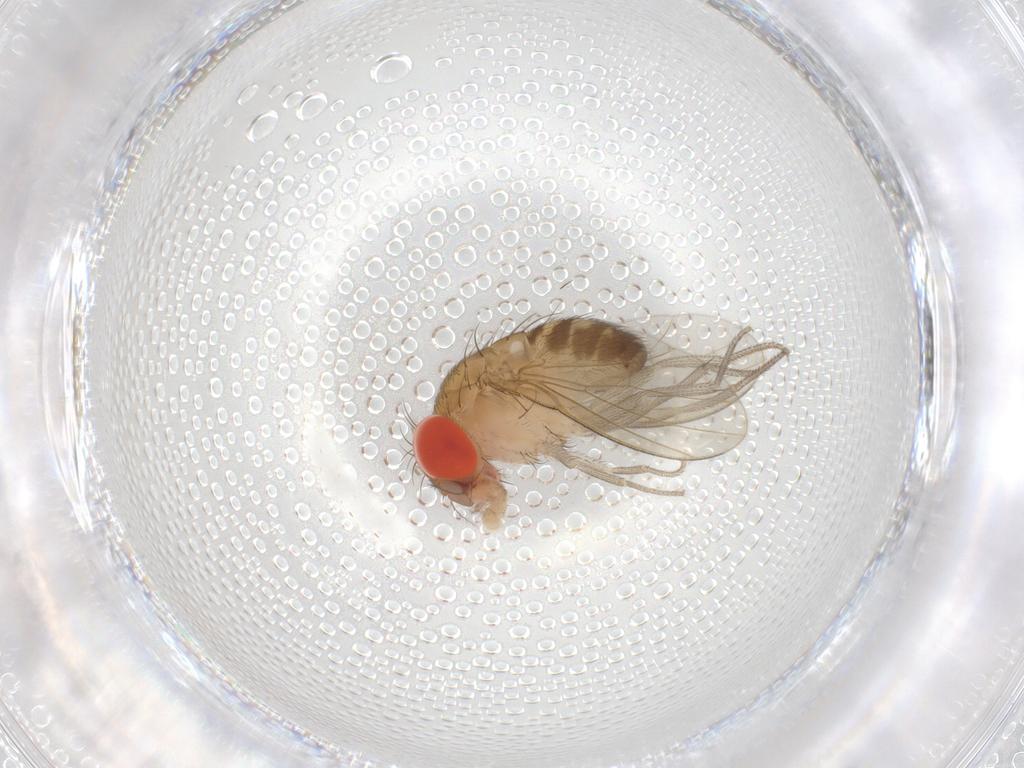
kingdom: Animalia
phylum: Arthropoda
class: Insecta
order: Diptera
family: Drosophilidae
